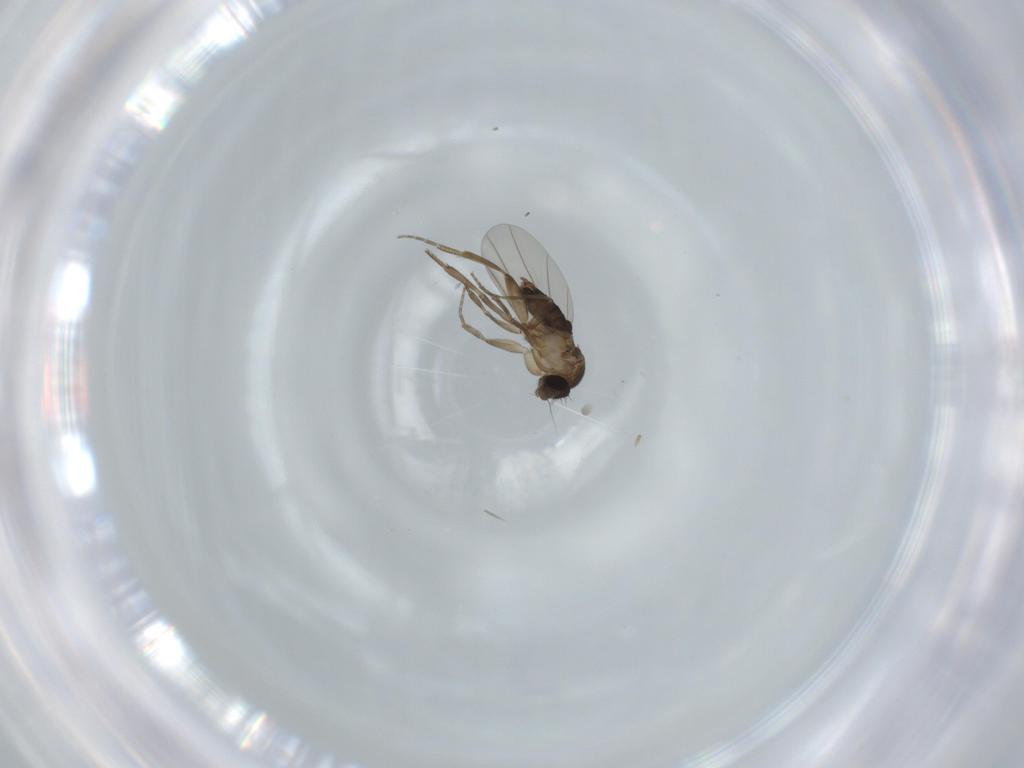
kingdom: Animalia
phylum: Arthropoda
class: Insecta
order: Diptera
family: Phoridae
